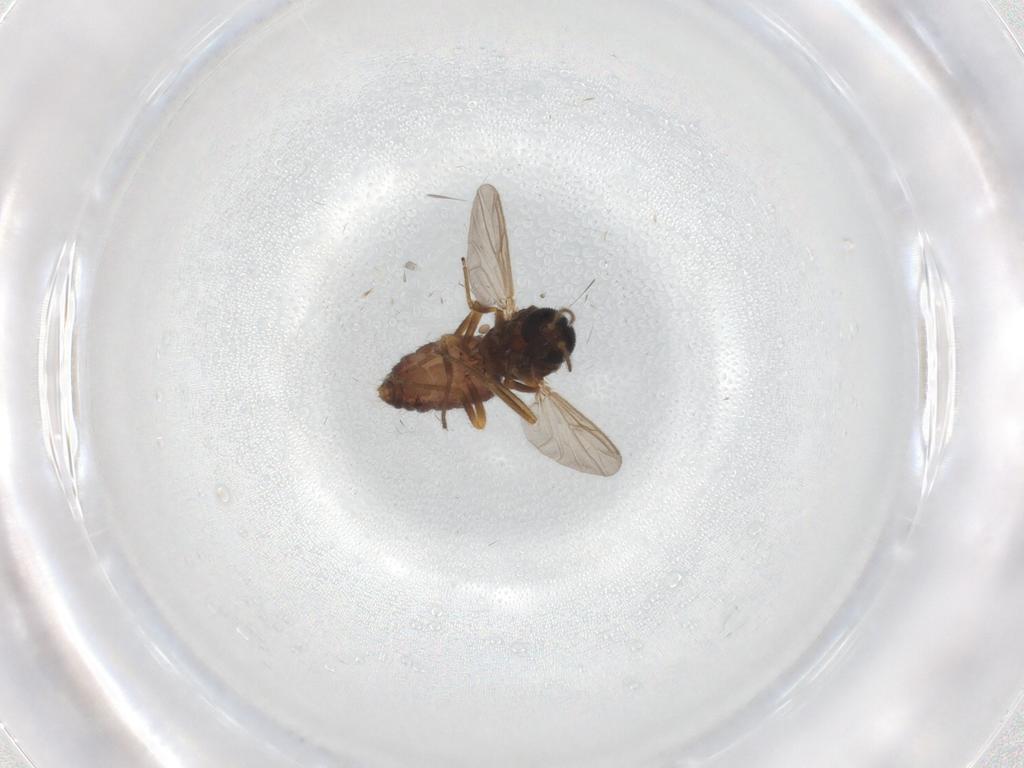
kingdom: Animalia
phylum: Arthropoda
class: Insecta
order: Diptera
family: Ceratopogonidae
